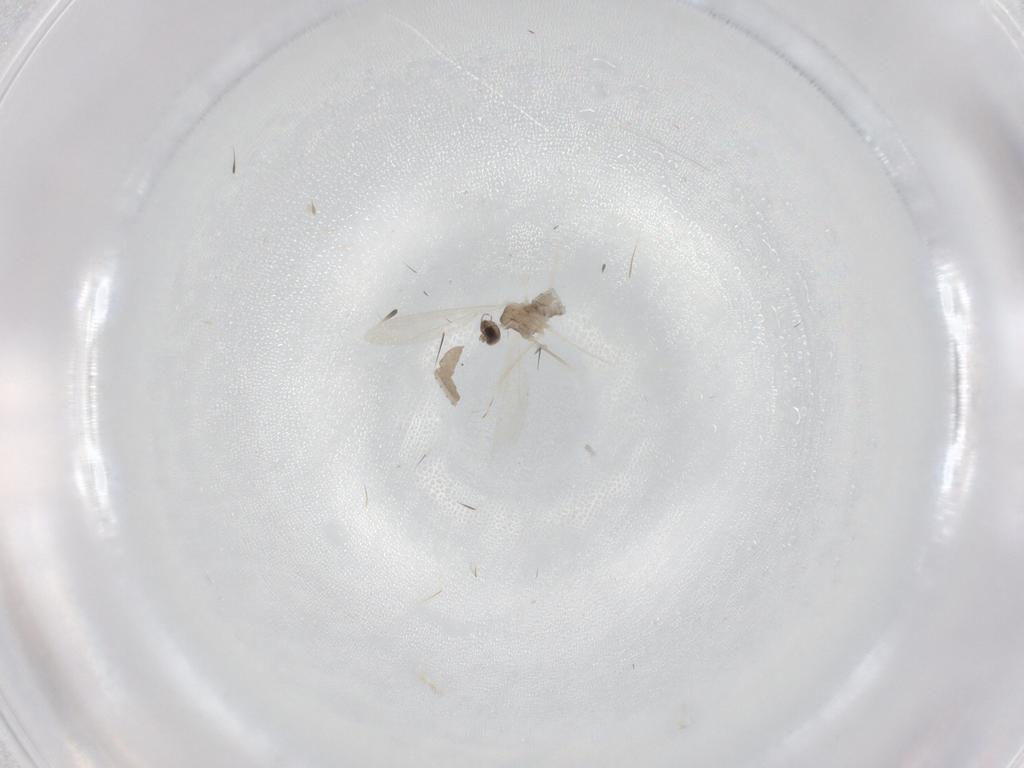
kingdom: Animalia
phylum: Arthropoda
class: Insecta
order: Diptera
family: Cecidomyiidae
